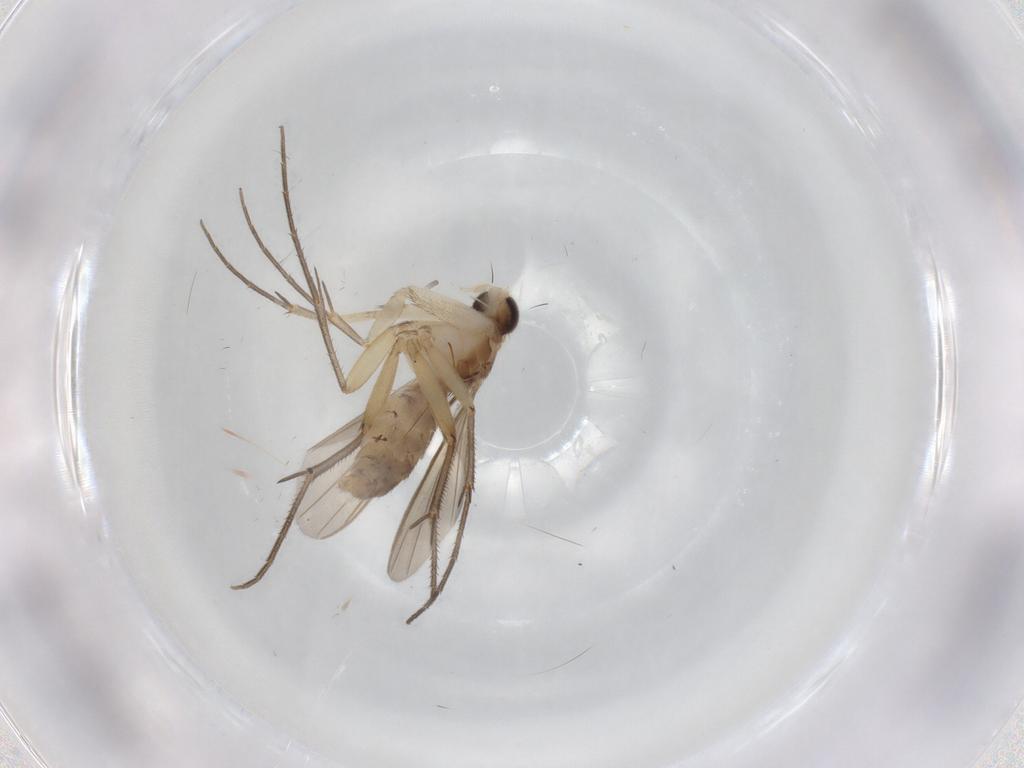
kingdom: Animalia
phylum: Arthropoda
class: Insecta
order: Diptera
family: Mycetophilidae
